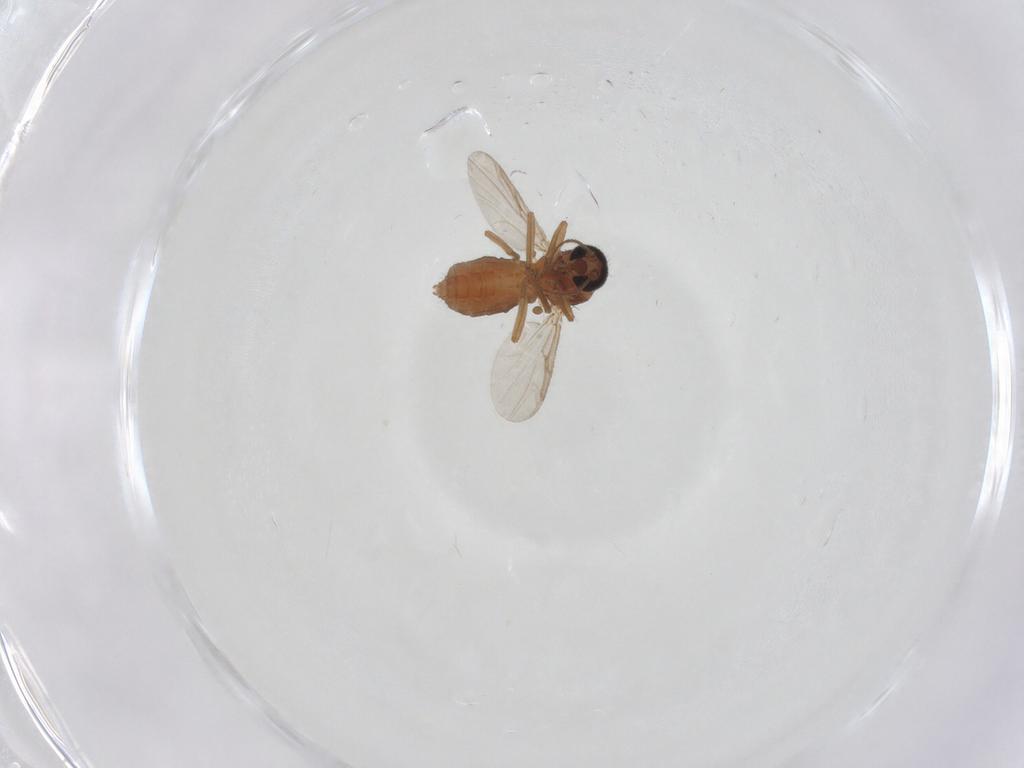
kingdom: Animalia
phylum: Arthropoda
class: Insecta
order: Diptera
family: Ceratopogonidae
